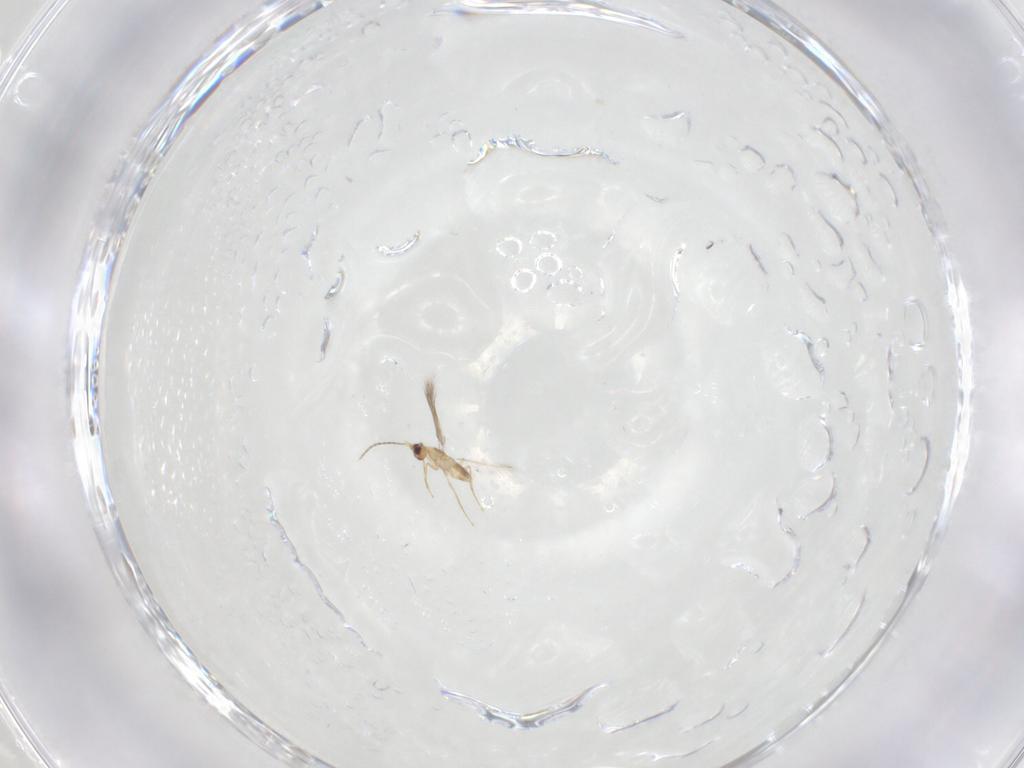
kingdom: Animalia
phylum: Arthropoda
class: Insecta
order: Hymenoptera
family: Mymaridae
